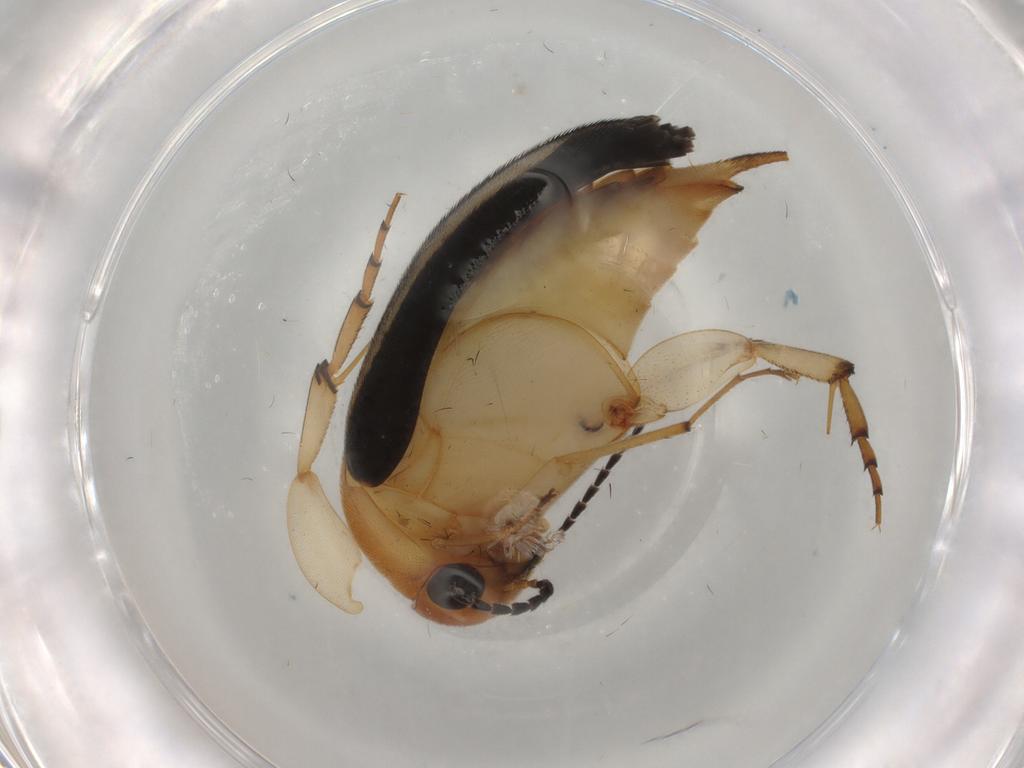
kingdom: Animalia
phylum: Arthropoda
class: Insecta
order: Coleoptera
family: Mordellidae
